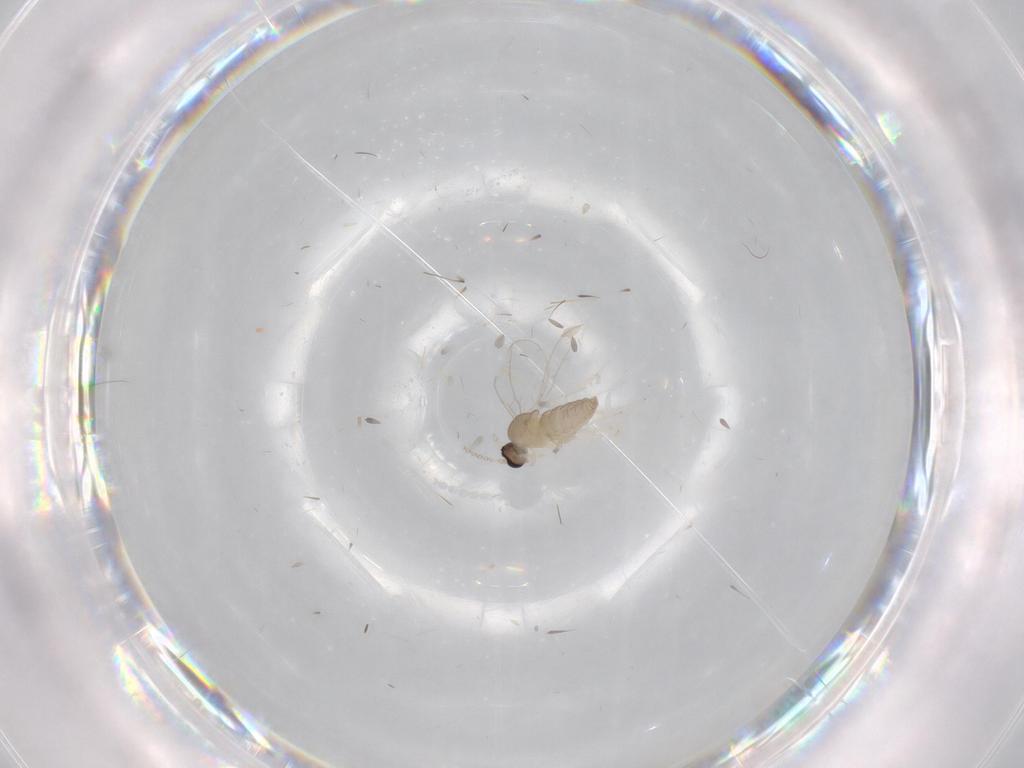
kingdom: Animalia
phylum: Arthropoda
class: Insecta
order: Diptera
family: Cecidomyiidae
